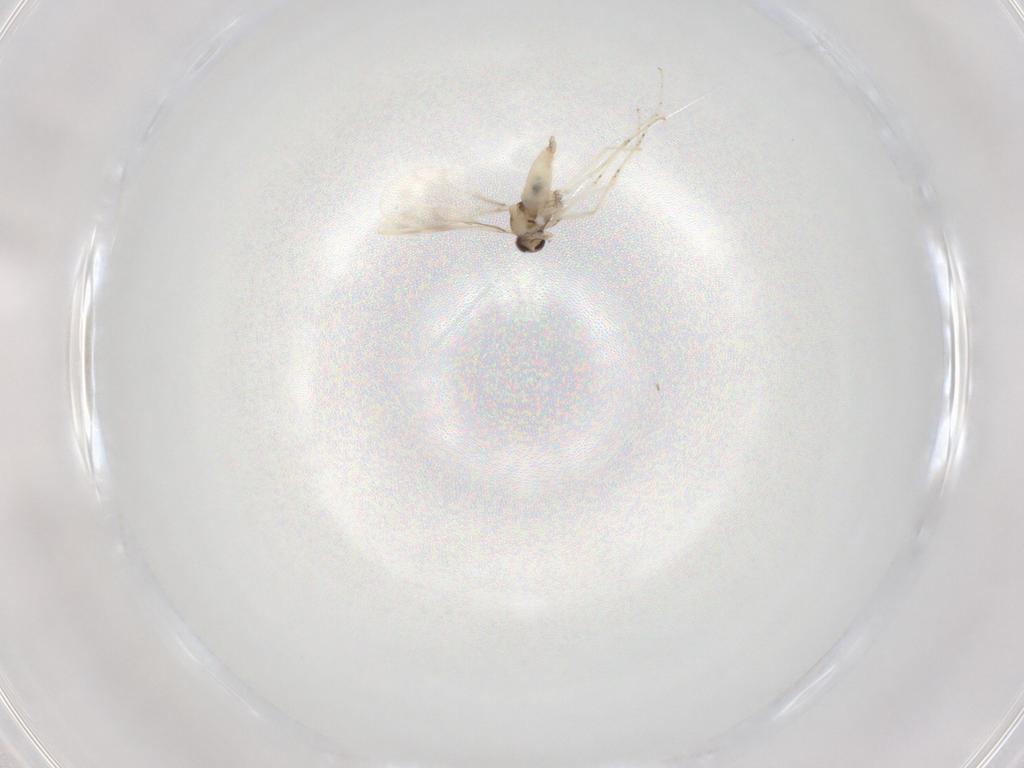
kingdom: Animalia
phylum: Arthropoda
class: Insecta
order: Diptera
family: Cecidomyiidae
